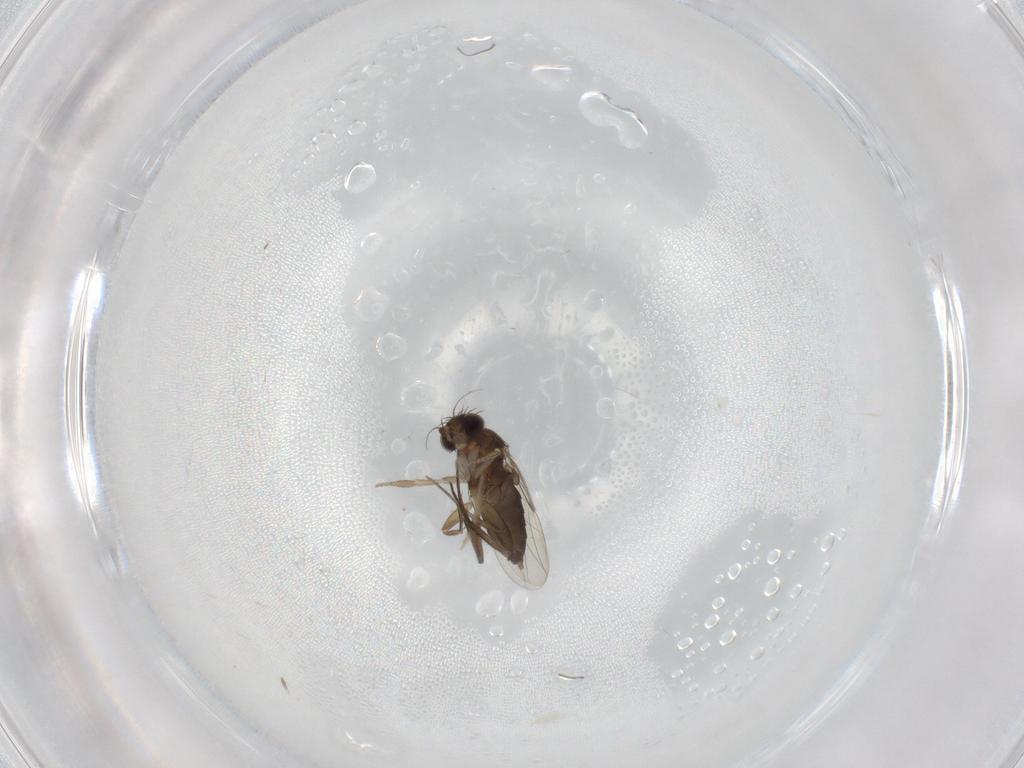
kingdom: Animalia
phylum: Arthropoda
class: Insecta
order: Diptera
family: Phoridae
